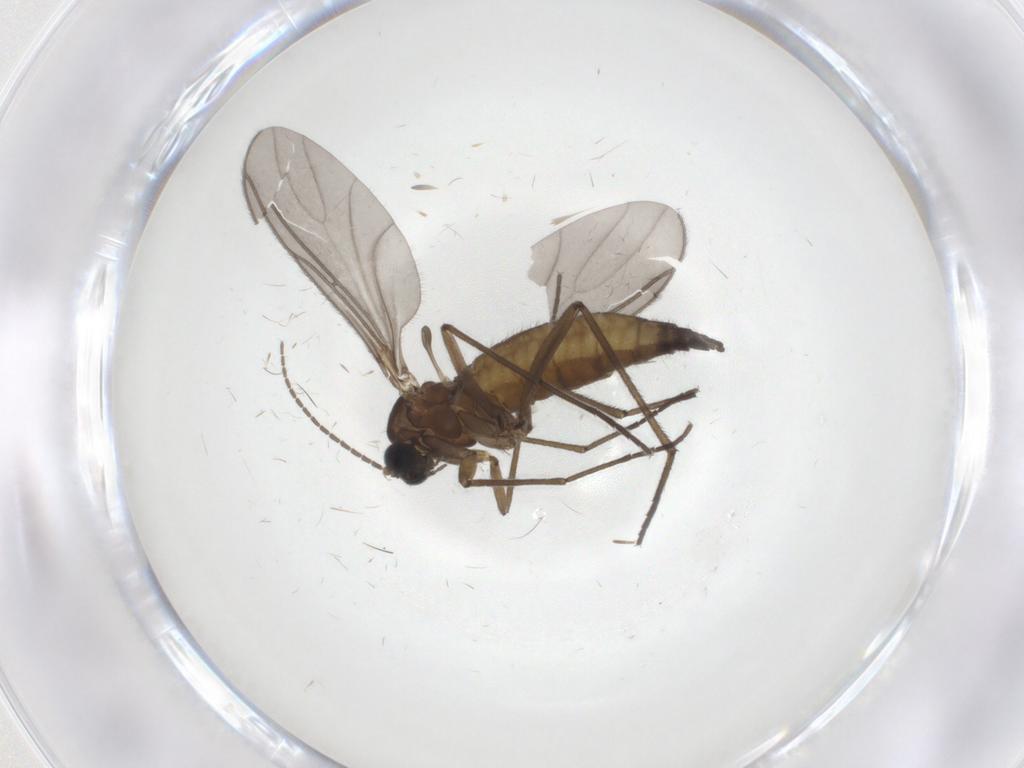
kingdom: Animalia
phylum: Arthropoda
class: Insecta
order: Diptera
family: Sciaridae
